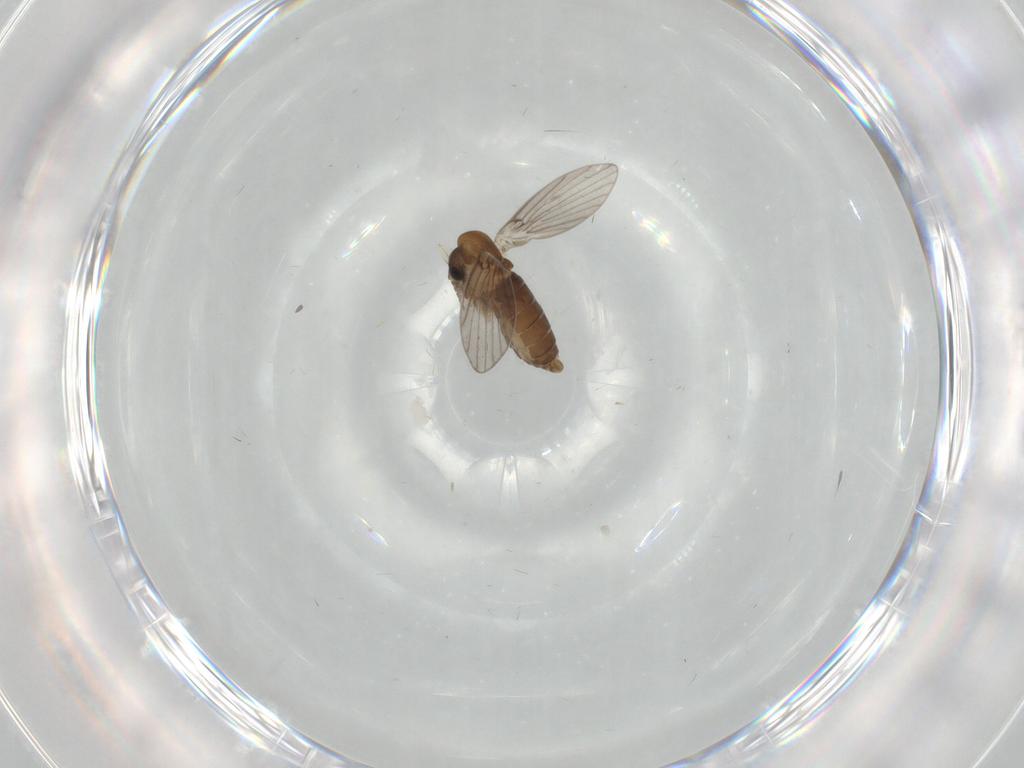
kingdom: Animalia
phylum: Arthropoda
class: Insecta
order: Diptera
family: Psychodidae
